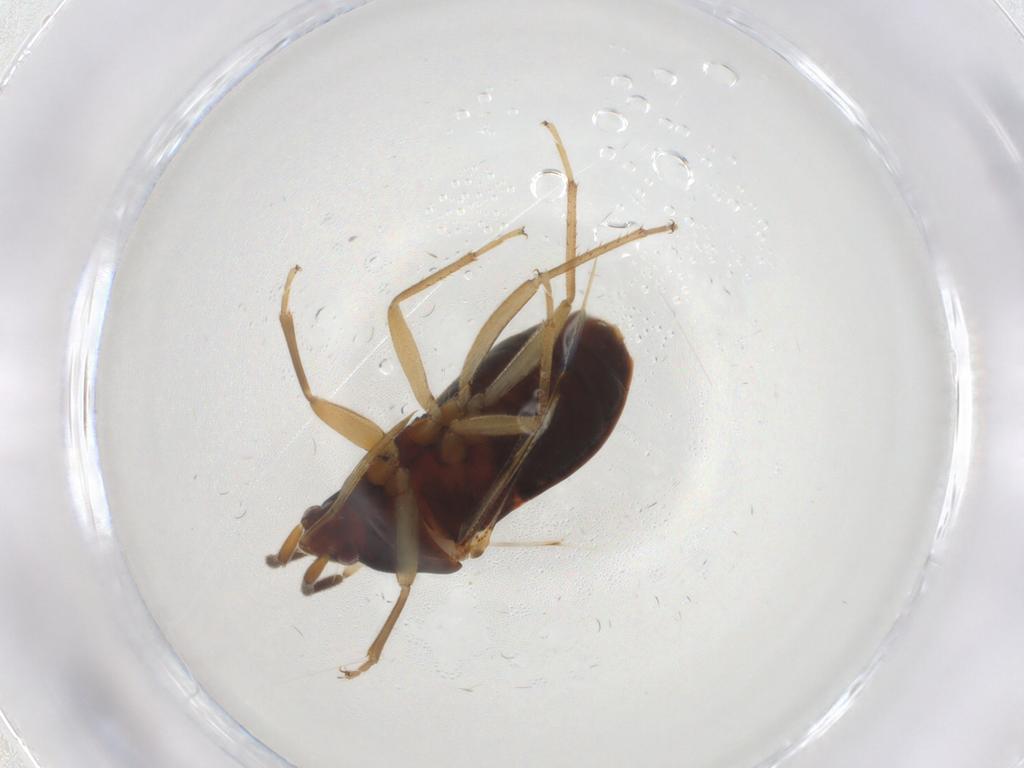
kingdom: Animalia
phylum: Arthropoda
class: Insecta
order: Hemiptera
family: Rhyparochromidae
